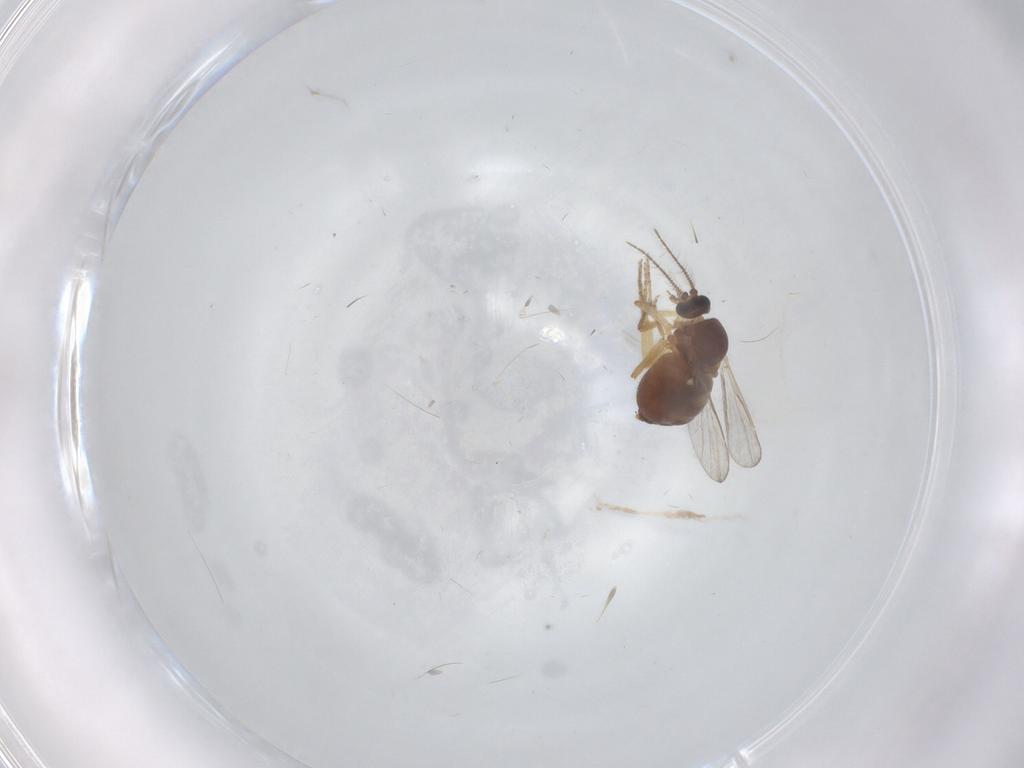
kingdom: Animalia
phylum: Arthropoda
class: Insecta
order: Diptera
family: Ceratopogonidae
